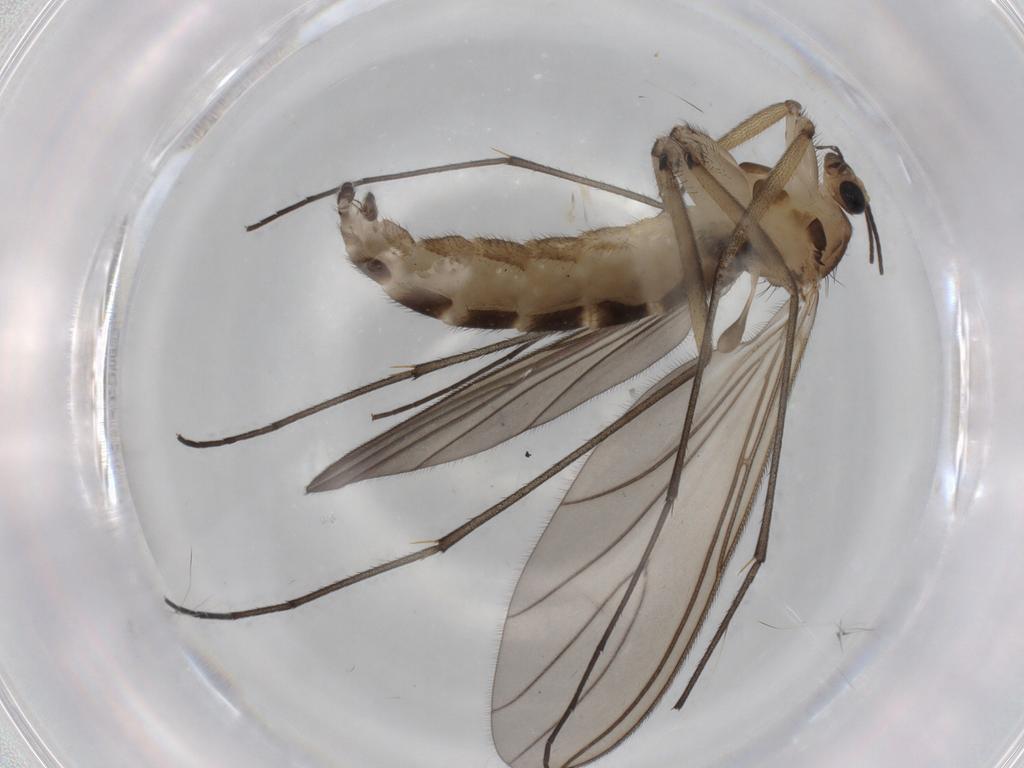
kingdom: Animalia
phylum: Arthropoda
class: Insecta
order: Diptera
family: Sciaridae
